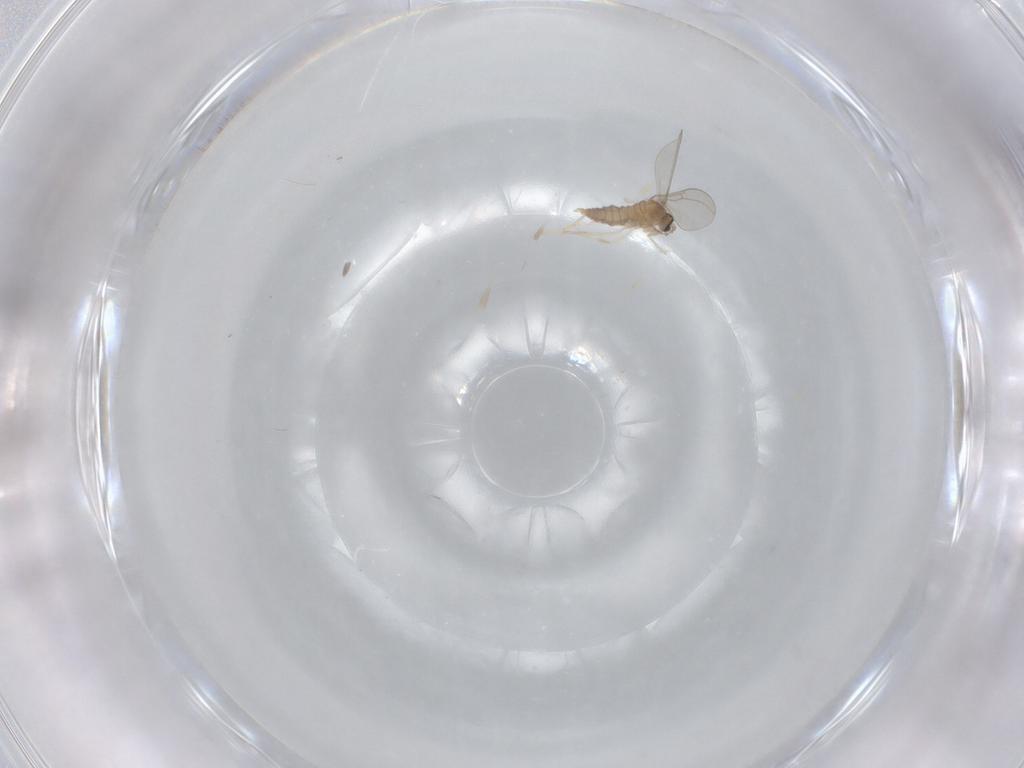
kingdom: Animalia
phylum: Arthropoda
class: Insecta
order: Diptera
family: Cecidomyiidae
